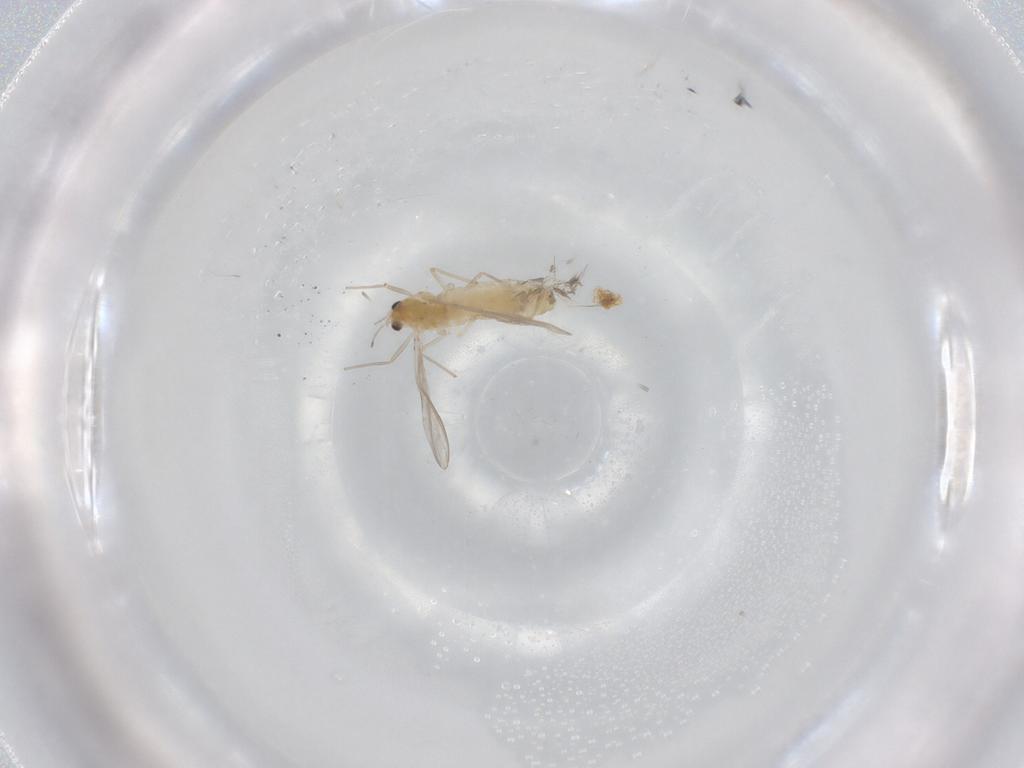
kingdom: Animalia
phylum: Arthropoda
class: Insecta
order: Diptera
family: Chironomidae
